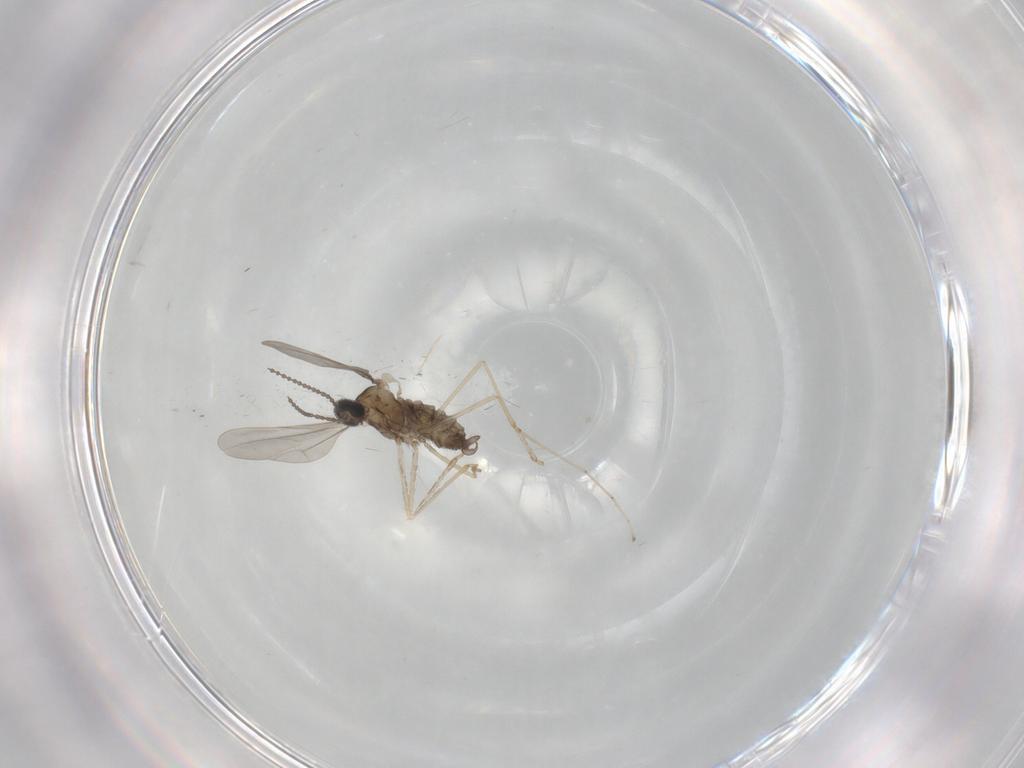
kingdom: Animalia
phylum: Arthropoda
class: Insecta
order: Diptera
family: Cecidomyiidae
